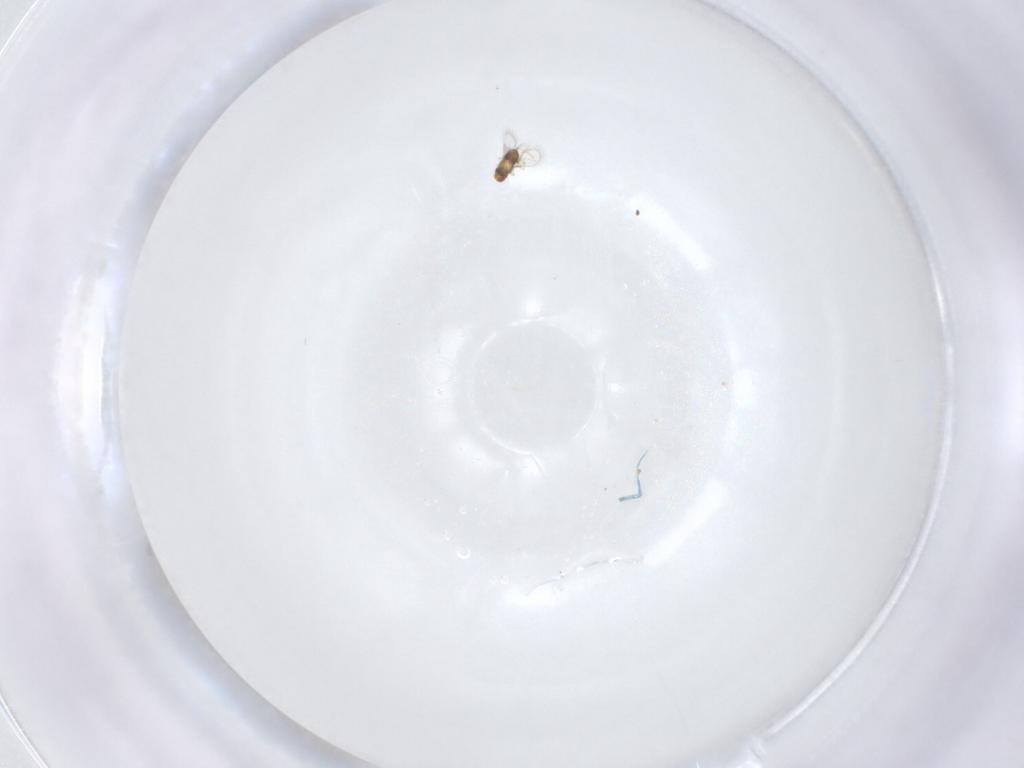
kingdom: Animalia
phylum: Arthropoda
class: Insecta
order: Hymenoptera
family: Trichogrammatidae
